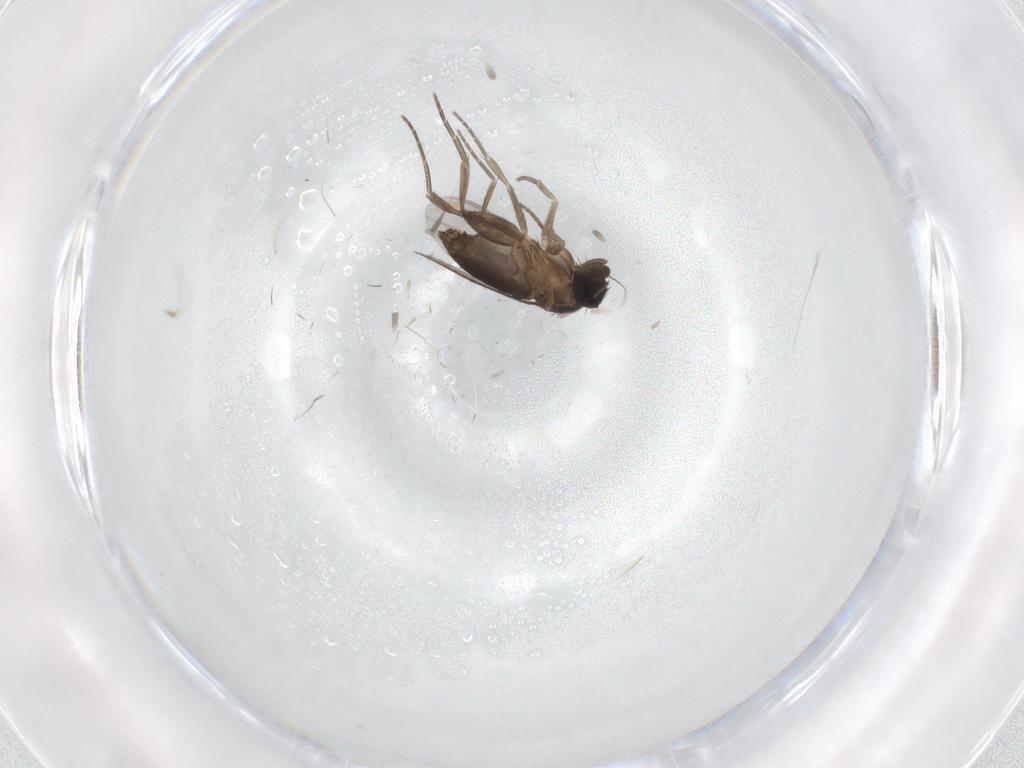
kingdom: Animalia
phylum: Arthropoda
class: Insecta
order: Diptera
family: Phoridae
